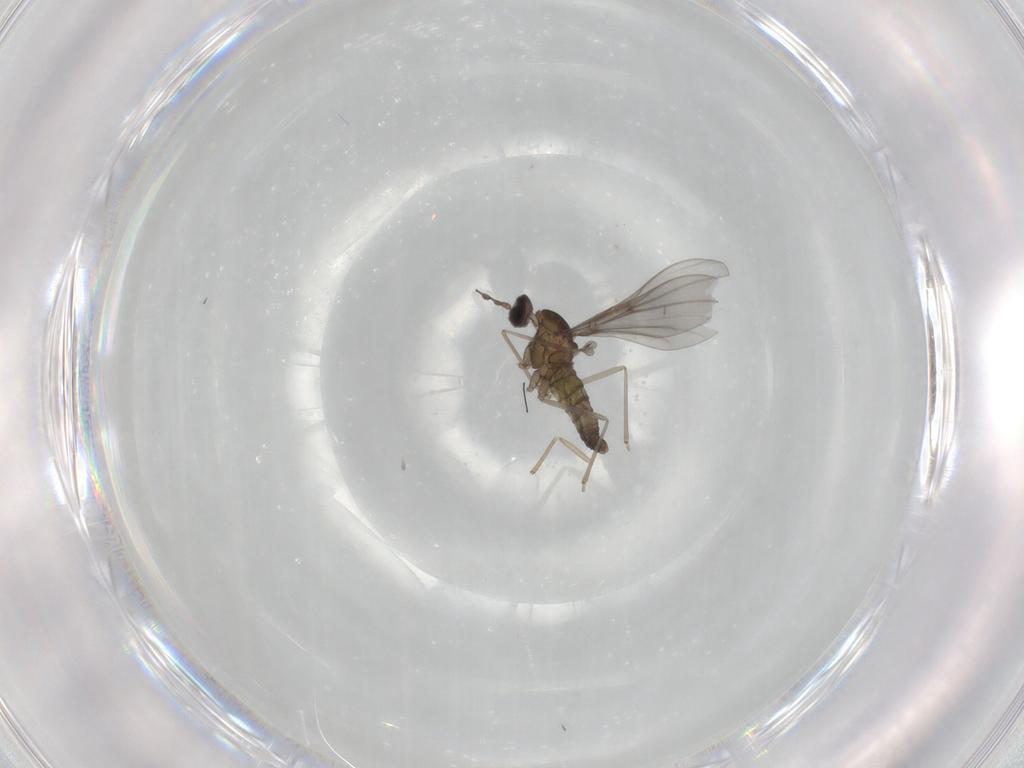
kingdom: Animalia
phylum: Arthropoda
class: Insecta
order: Diptera
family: Cecidomyiidae
